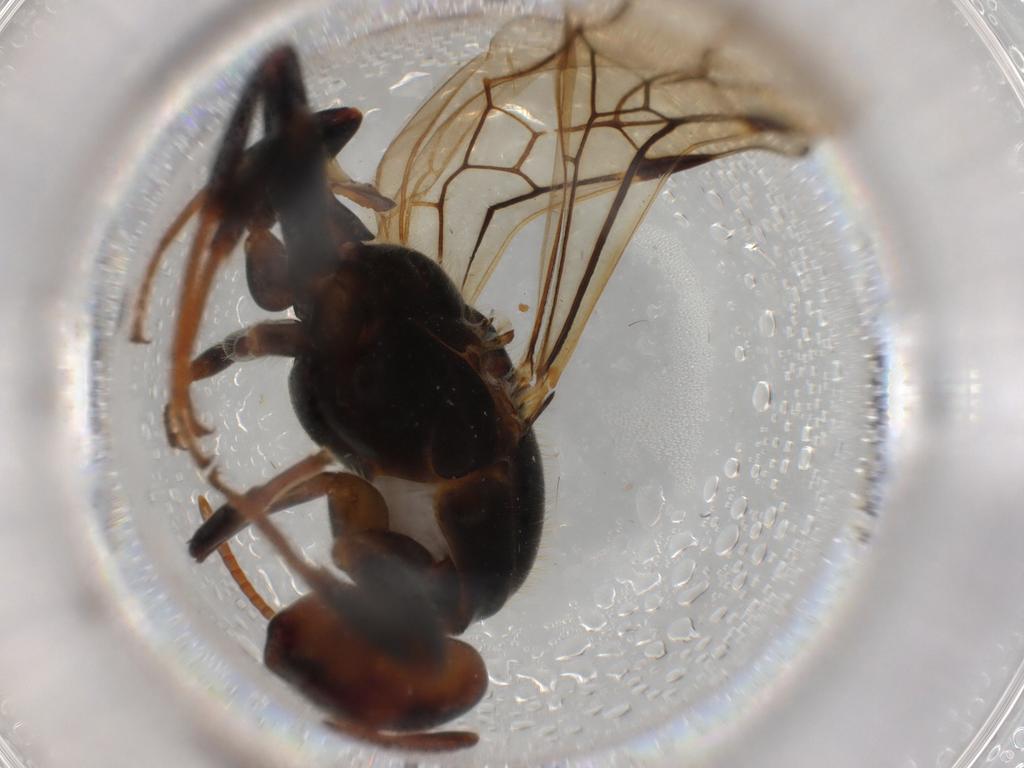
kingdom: Animalia
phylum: Arthropoda
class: Insecta
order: Hymenoptera
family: Formicidae
